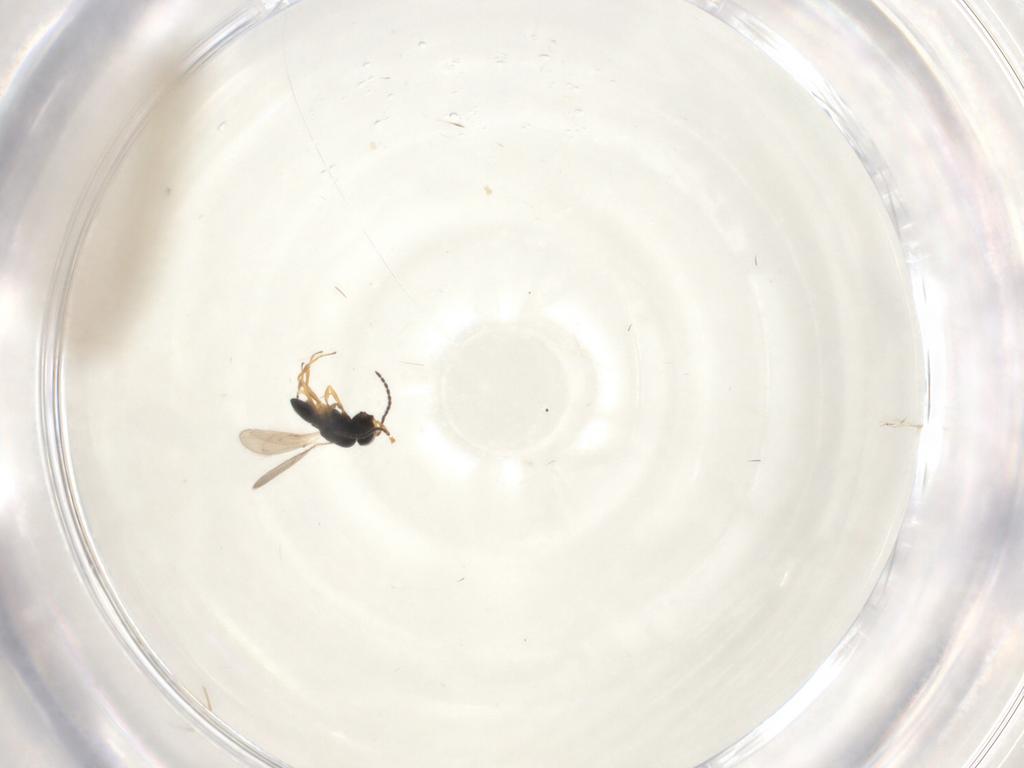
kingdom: Animalia
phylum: Arthropoda
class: Insecta
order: Hymenoptera
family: Scelionidae
